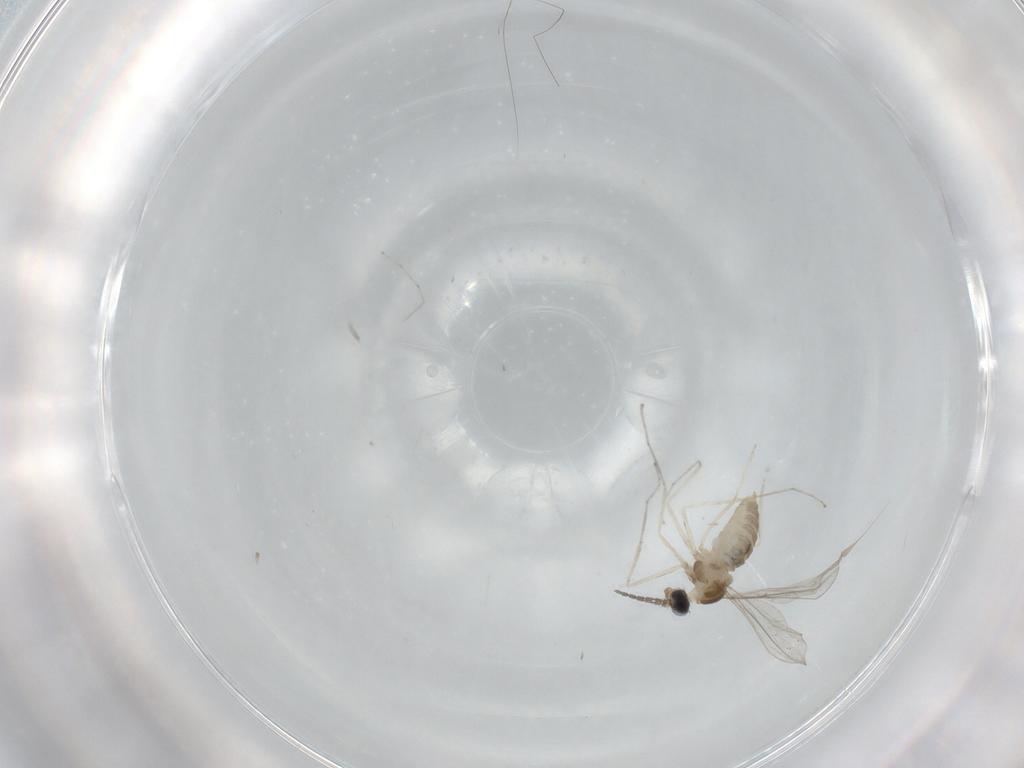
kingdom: Animalia
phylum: Arthropoda
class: Insecta
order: Diptera
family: Cecidomyiidae
